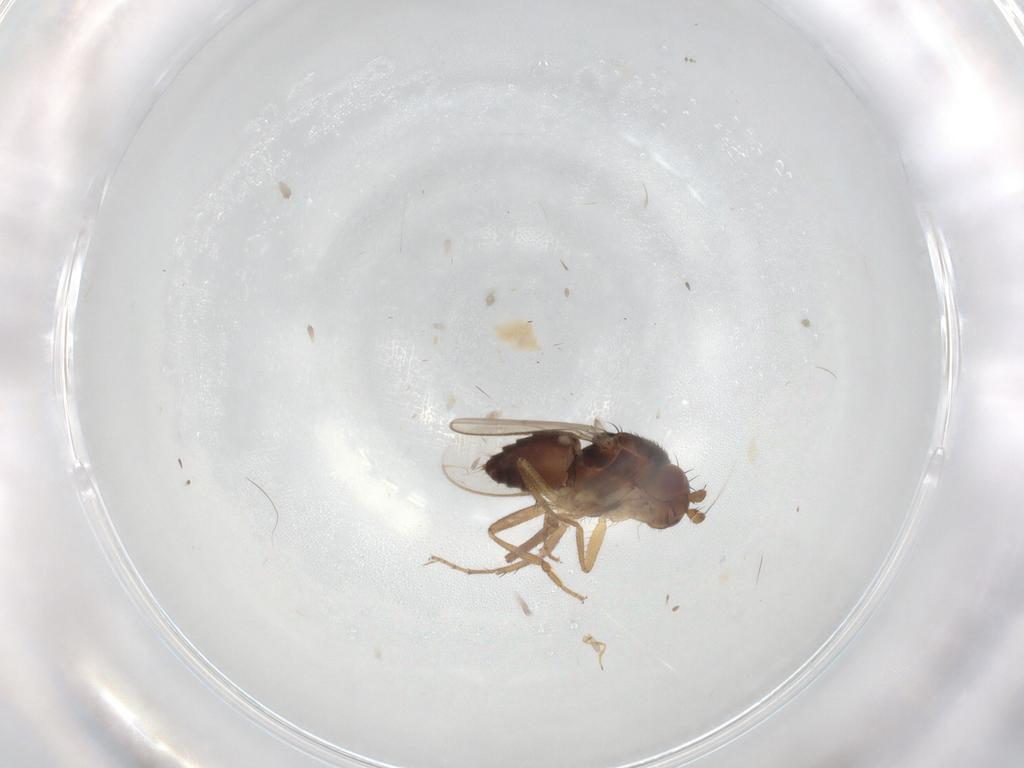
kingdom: Animalia
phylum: Arthropoda
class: Insecta
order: Diptera
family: Sphaeroceridae
